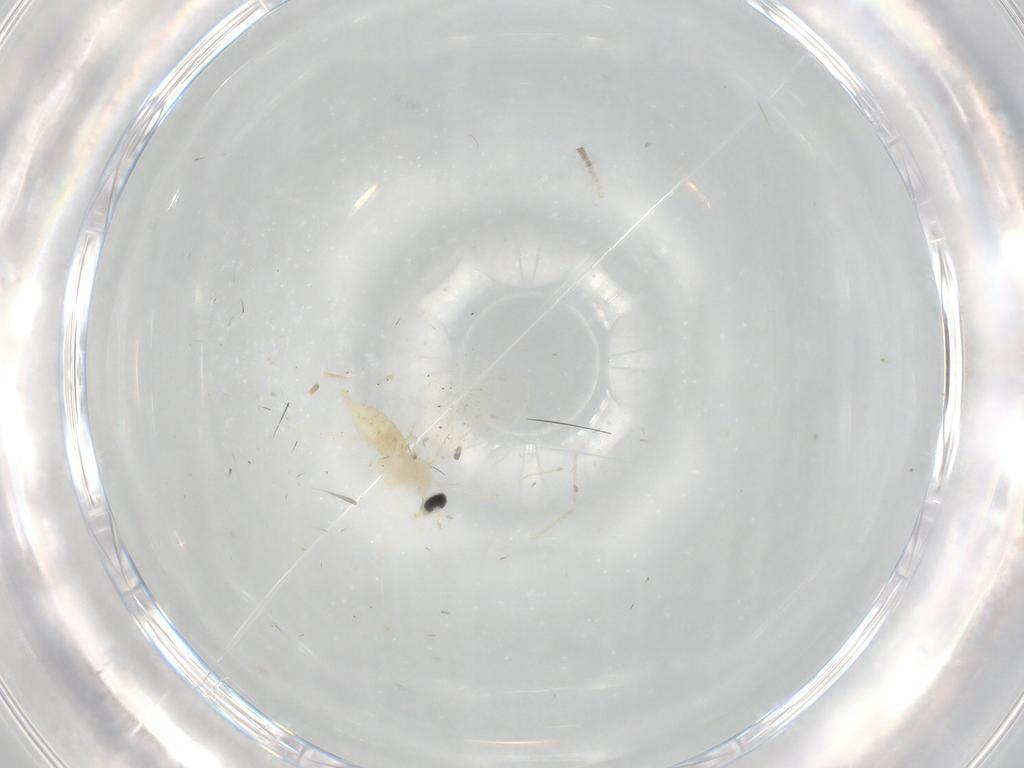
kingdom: Animalia
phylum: Arthropoda
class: Insecta
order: Diptera
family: Cecidomyiidae
